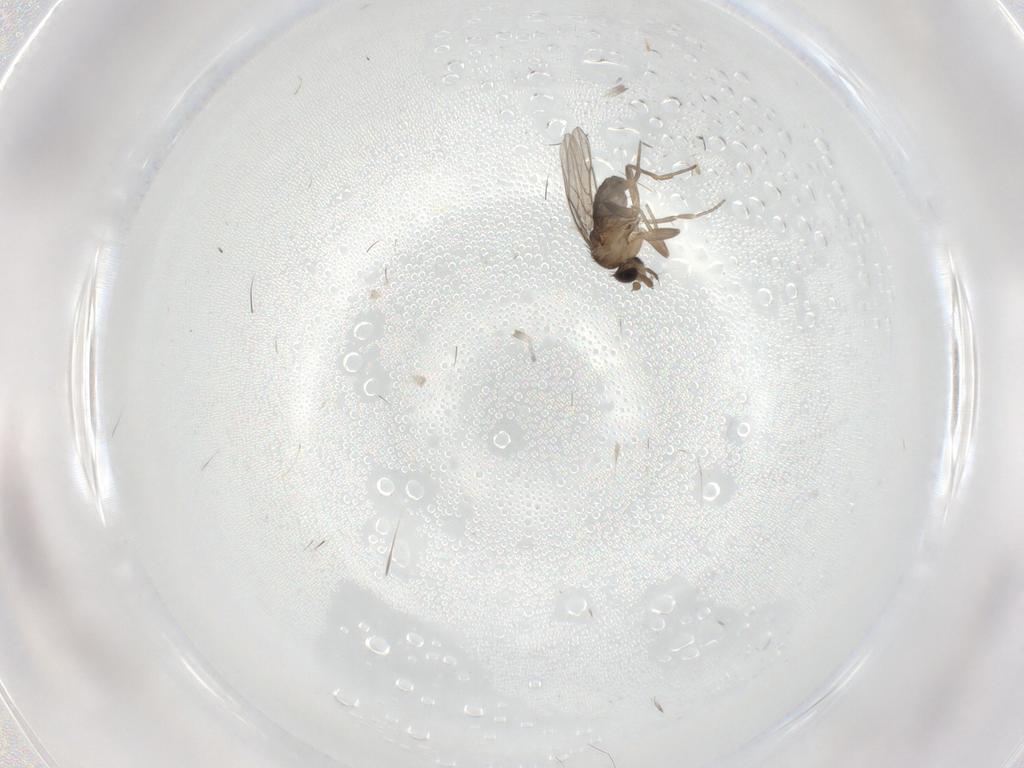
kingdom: Animalia
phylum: Arthropoda
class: Insecta
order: Diptera
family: Cecidomyiidae
